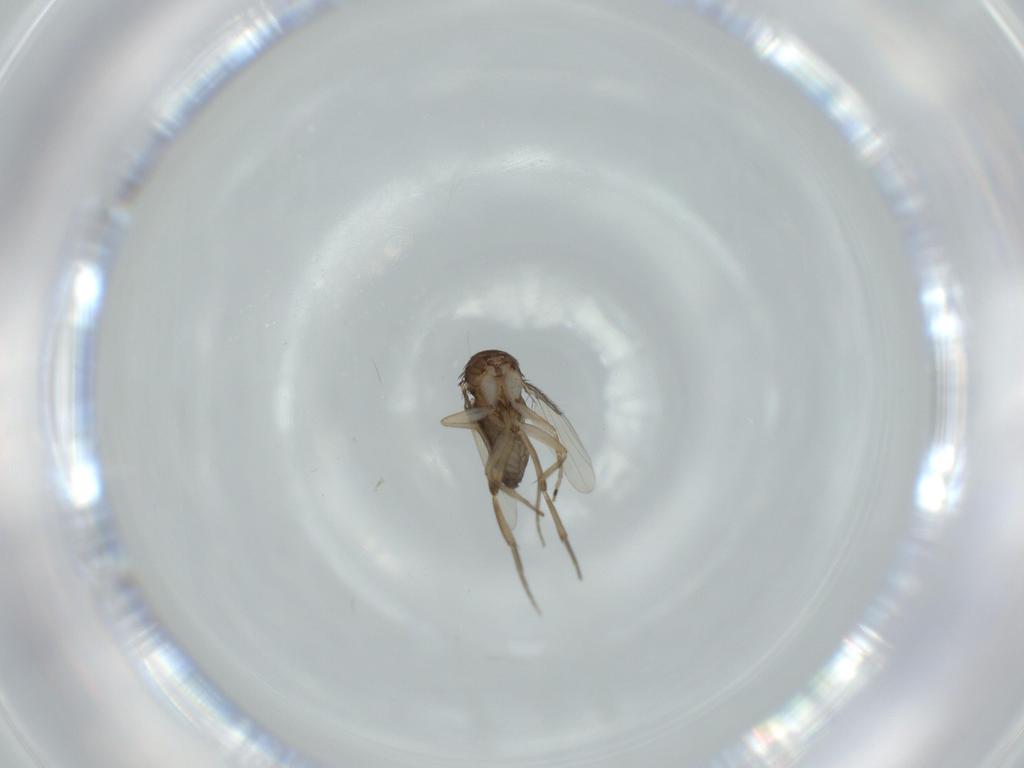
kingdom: Animalia
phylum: Arthropoda
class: Insecta
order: Diptera
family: Phoridae
